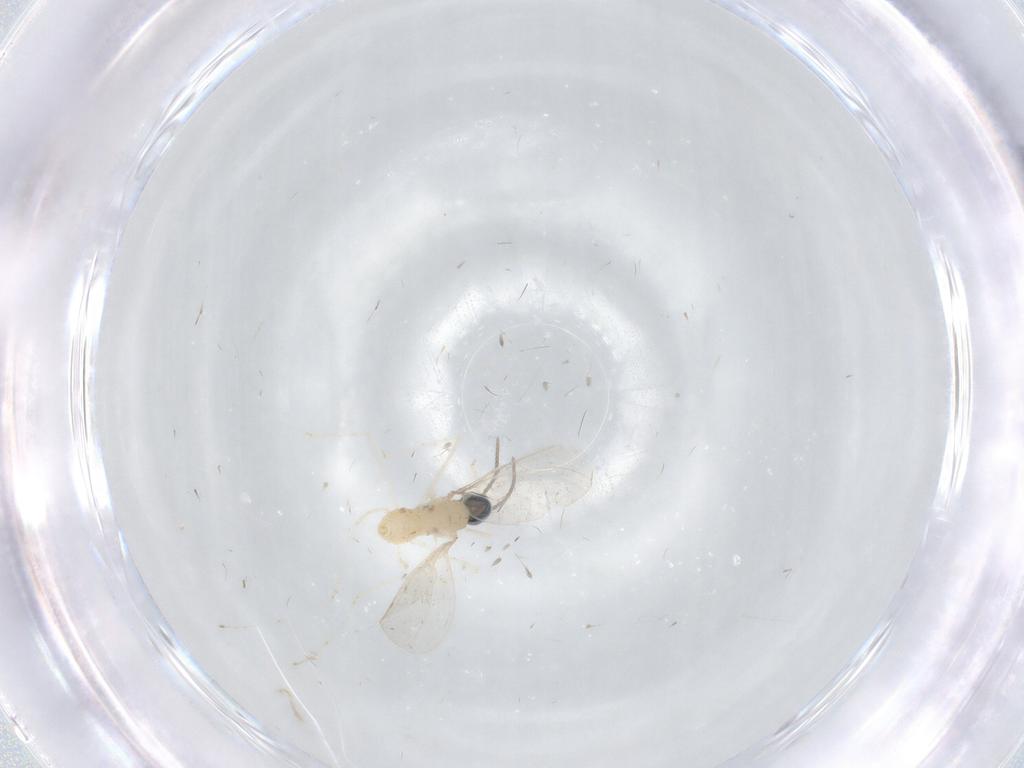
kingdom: Animalia
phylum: Arthropoda
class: Insecta
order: Diptera
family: Cecidomyiidae
